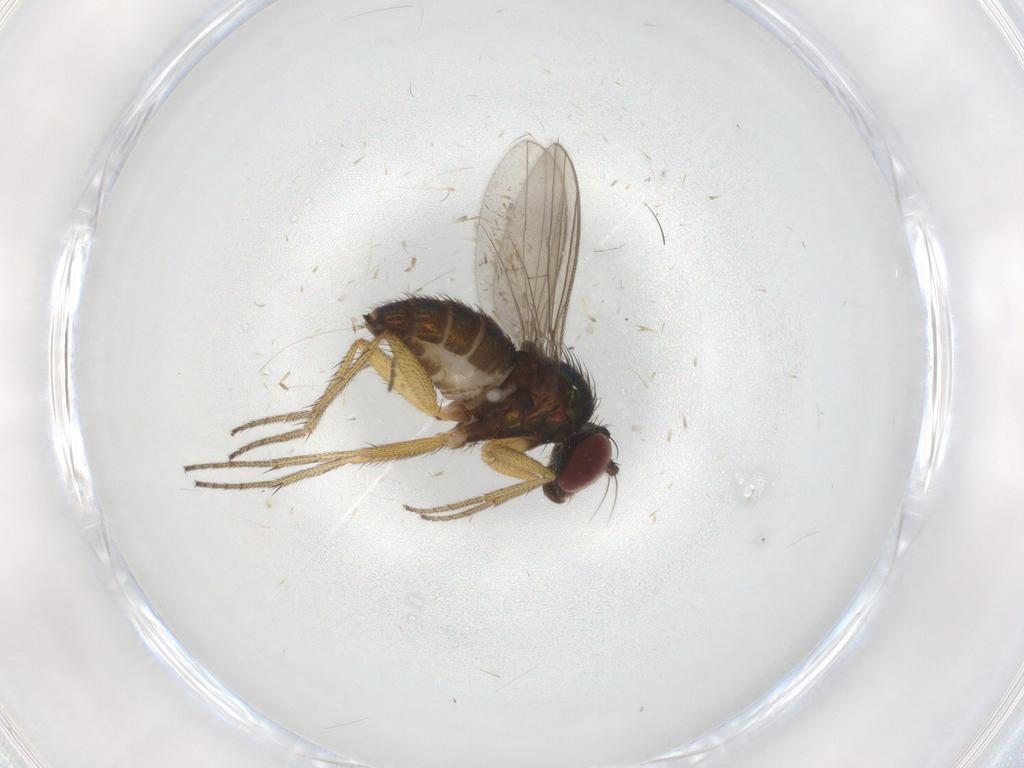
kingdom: Animalia
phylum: Arthropoda
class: Insecta
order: Diptera
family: Dolichopodidae
